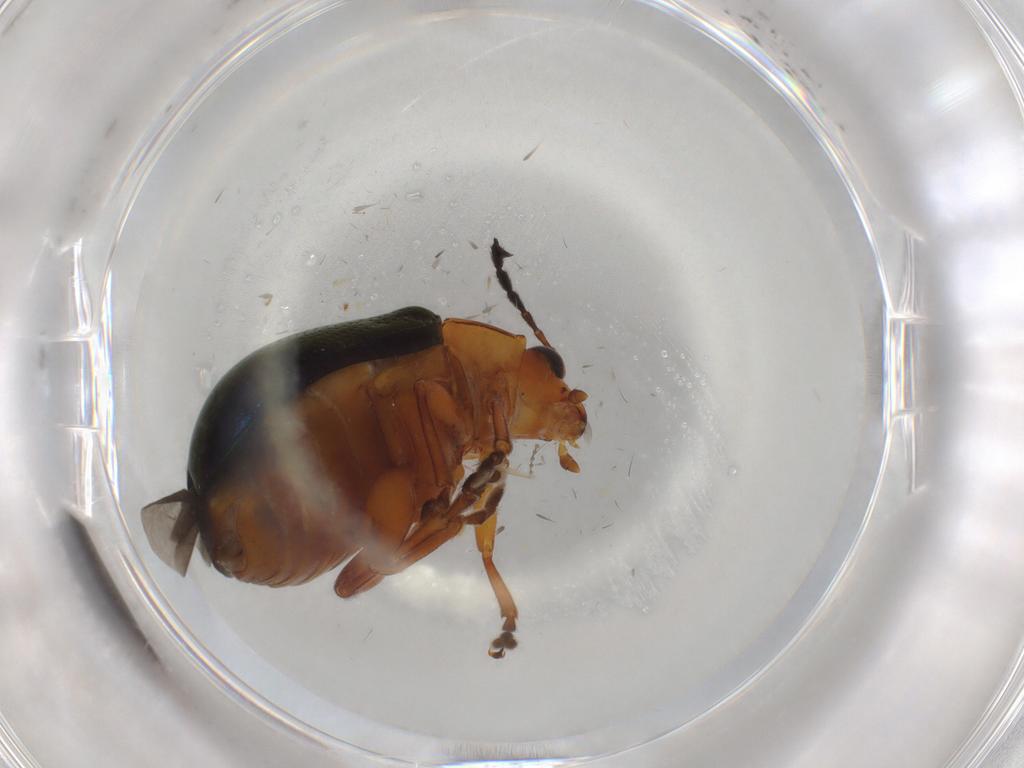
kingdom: Animalia
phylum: Arthropoda
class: Insecta
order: Coleoptera
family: Chrysomelidae
